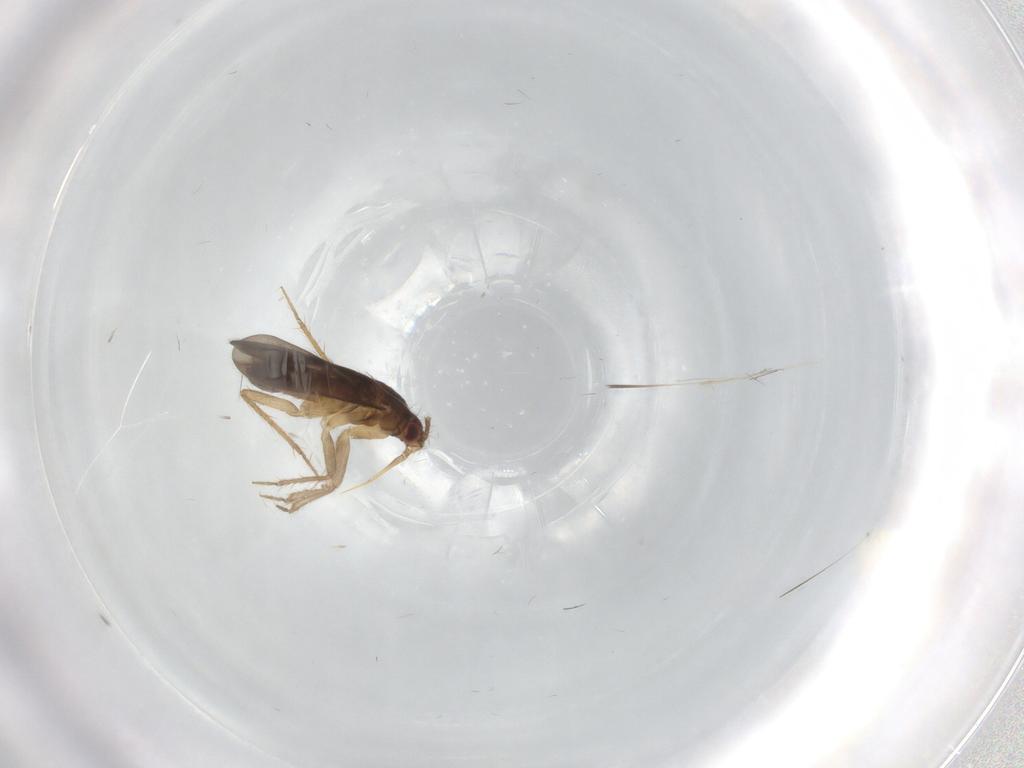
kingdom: Animalia
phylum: Arthropoda
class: Insecta
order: Hemiptera
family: Ceratocombidae
